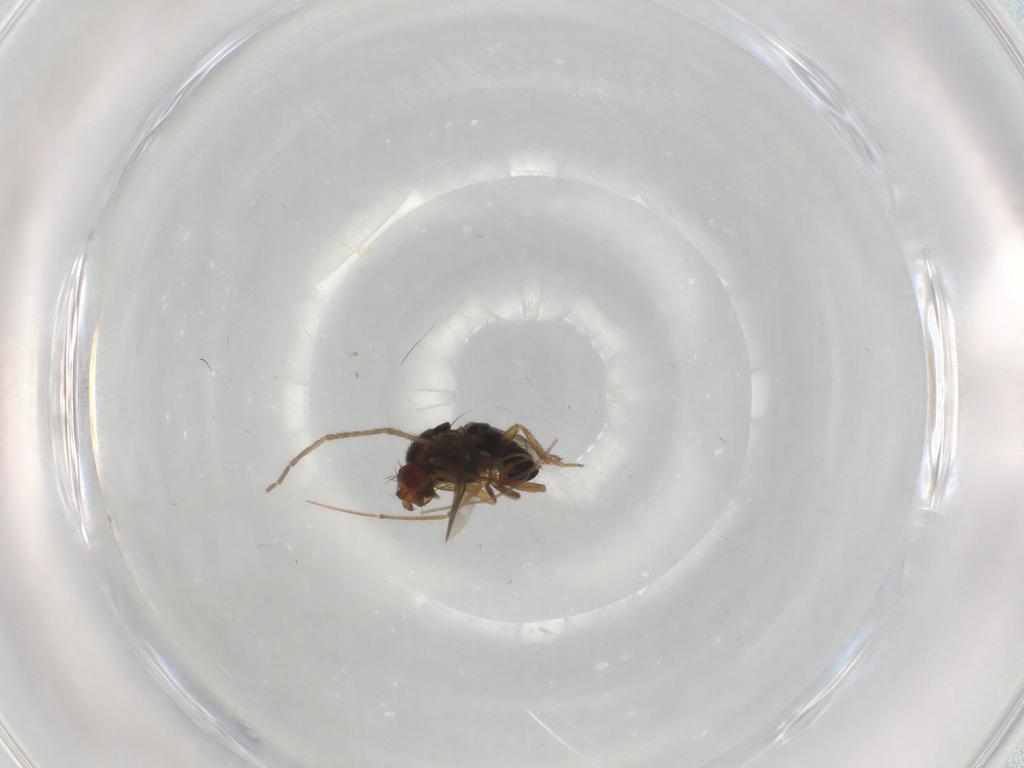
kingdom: Animalia
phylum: Arthropoda
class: Insecta
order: Diptera
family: Sphaeroceridae
